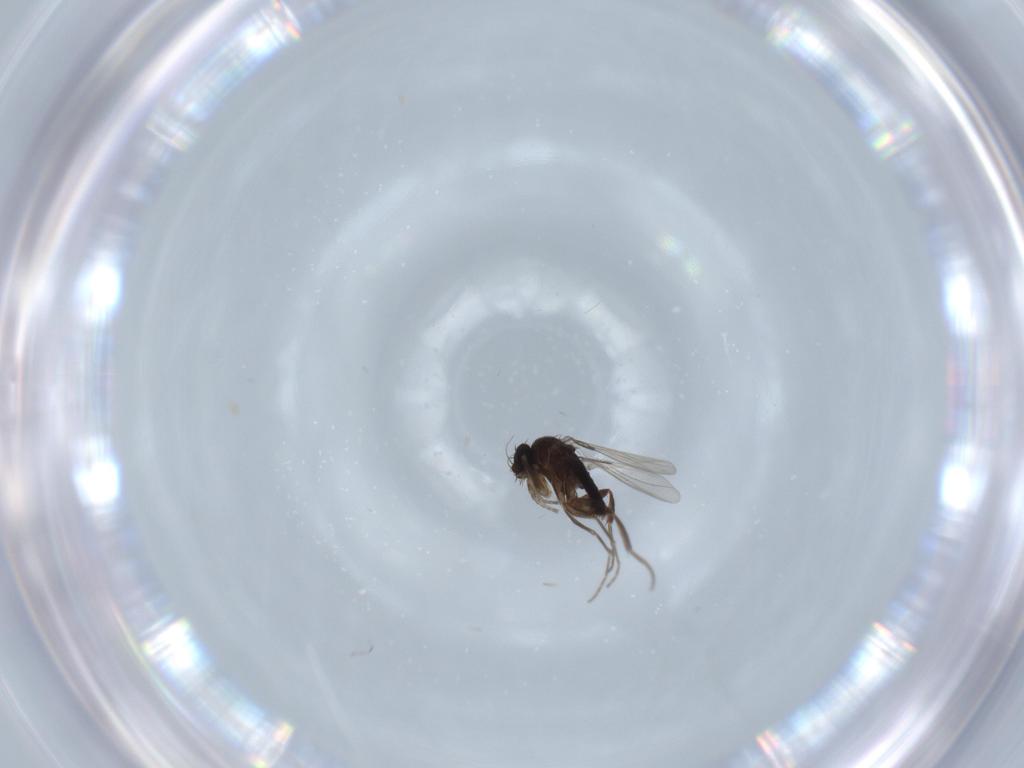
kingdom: Animalia
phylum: Arthropoda
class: Insecta
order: Diptera
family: Phoridae
